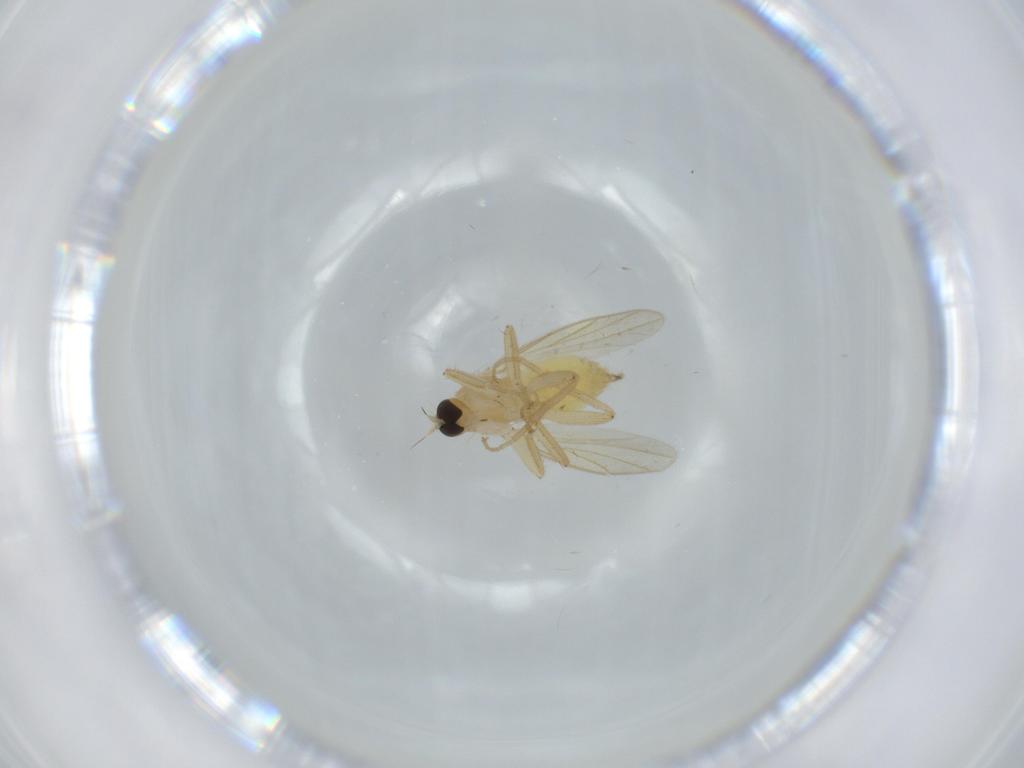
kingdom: Animalia
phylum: Arthropoda
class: Insecta
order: Diptera
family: Hybotidae
